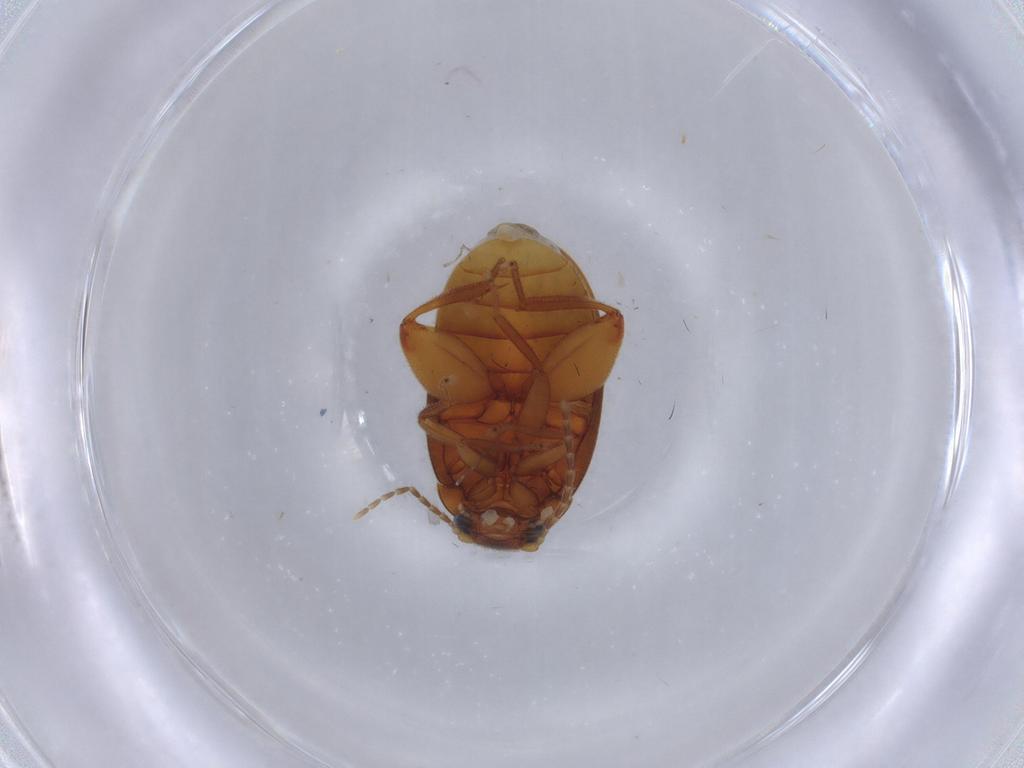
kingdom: Animalia
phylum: Arthropoda
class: Insecta
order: Coleoptera
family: Scirtidae
